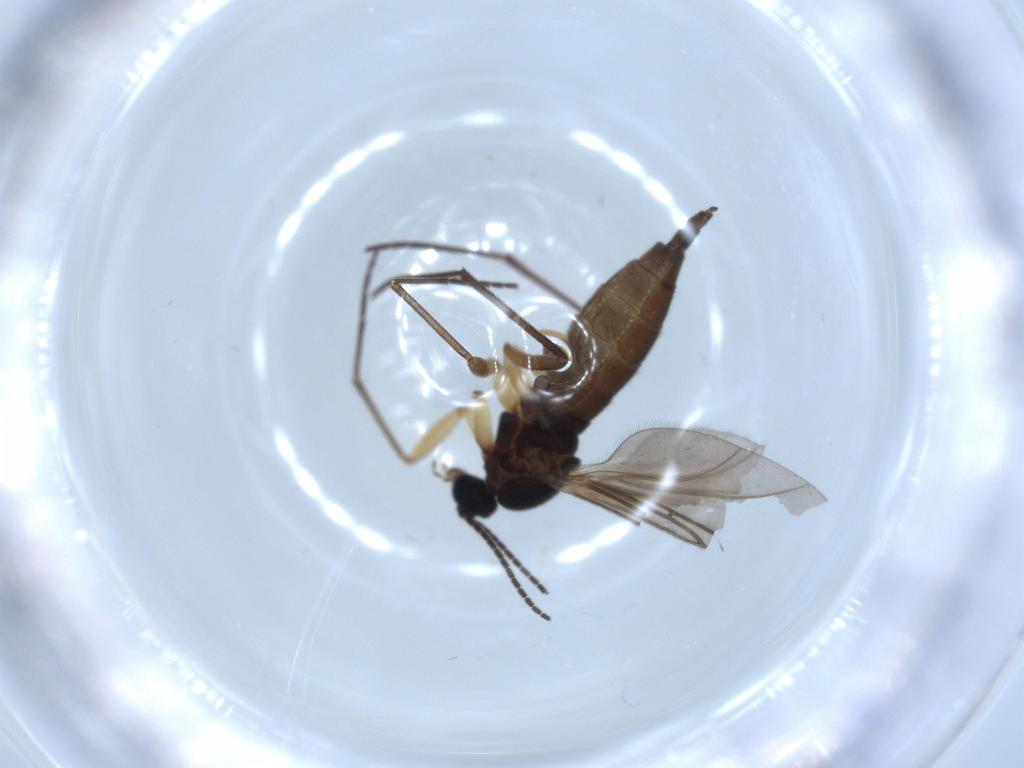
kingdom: Animalia
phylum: Arthropoda
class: Insecta
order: Diptera
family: Sciaridae
